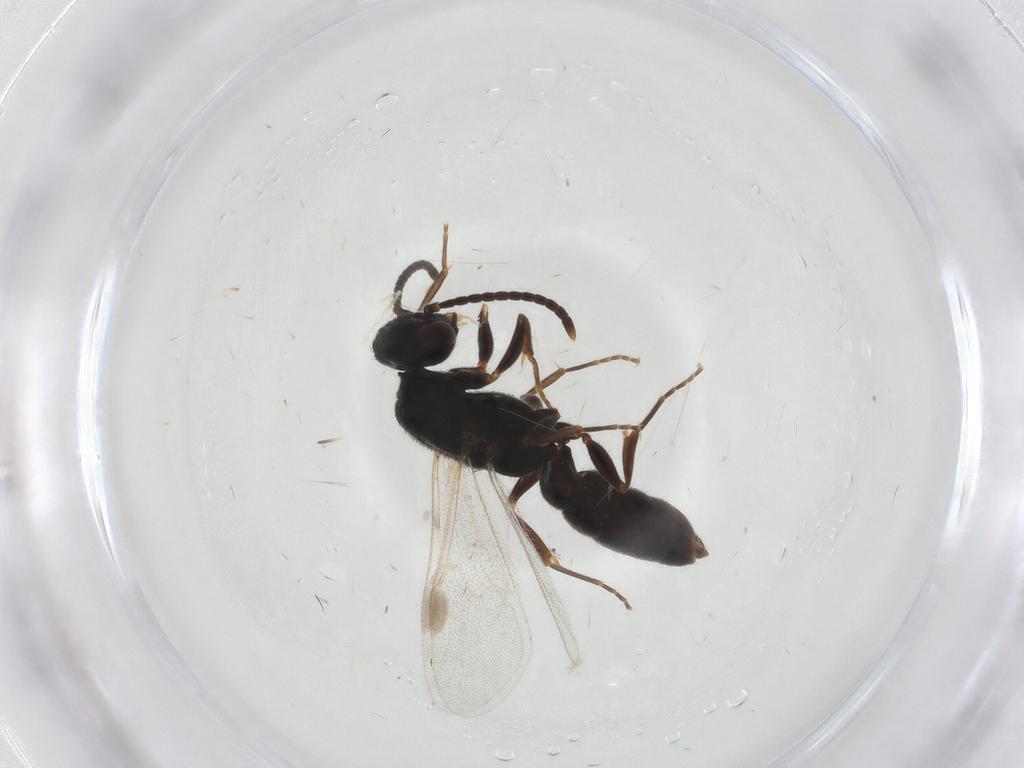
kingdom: Animalia
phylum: Arthropoda
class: Insecta
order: Hymenoptera
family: Formicidae
